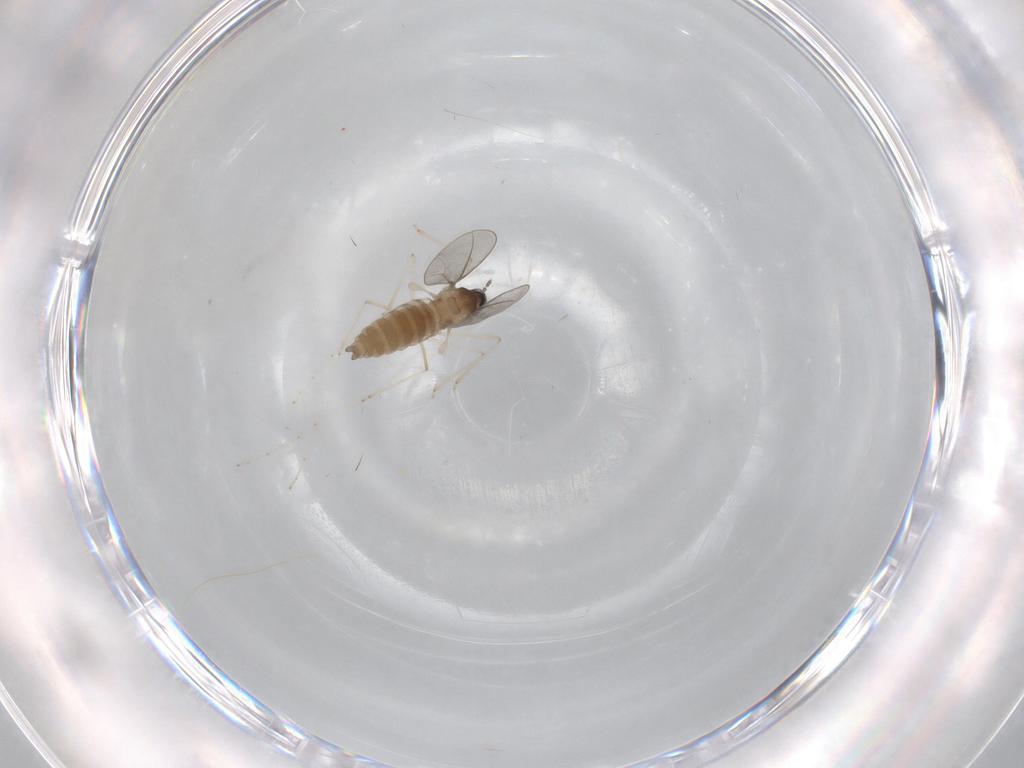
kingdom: Animalia
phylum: Arthropoda
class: Insecta
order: Diptera
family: Cecidomyiidae
